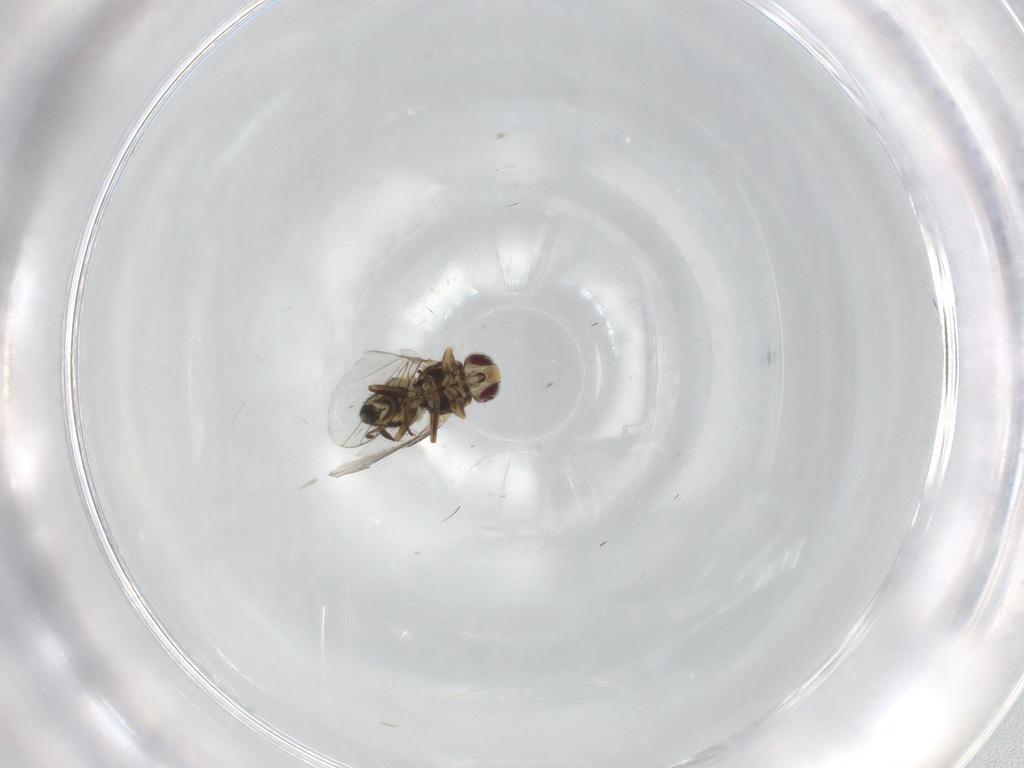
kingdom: Animalia
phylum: Arthropoda
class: Insecta
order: Diptera
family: Agromyzidae
